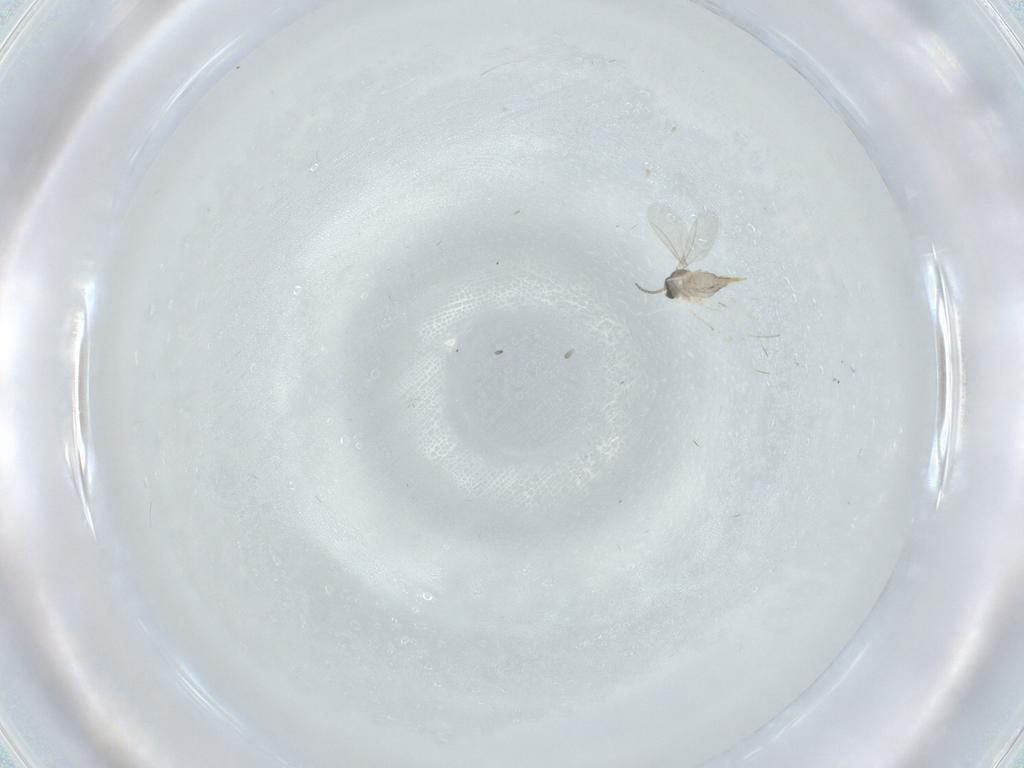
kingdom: Animalia
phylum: Arthropoda
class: Insecta
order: Diptera
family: Cecidomyiidae
